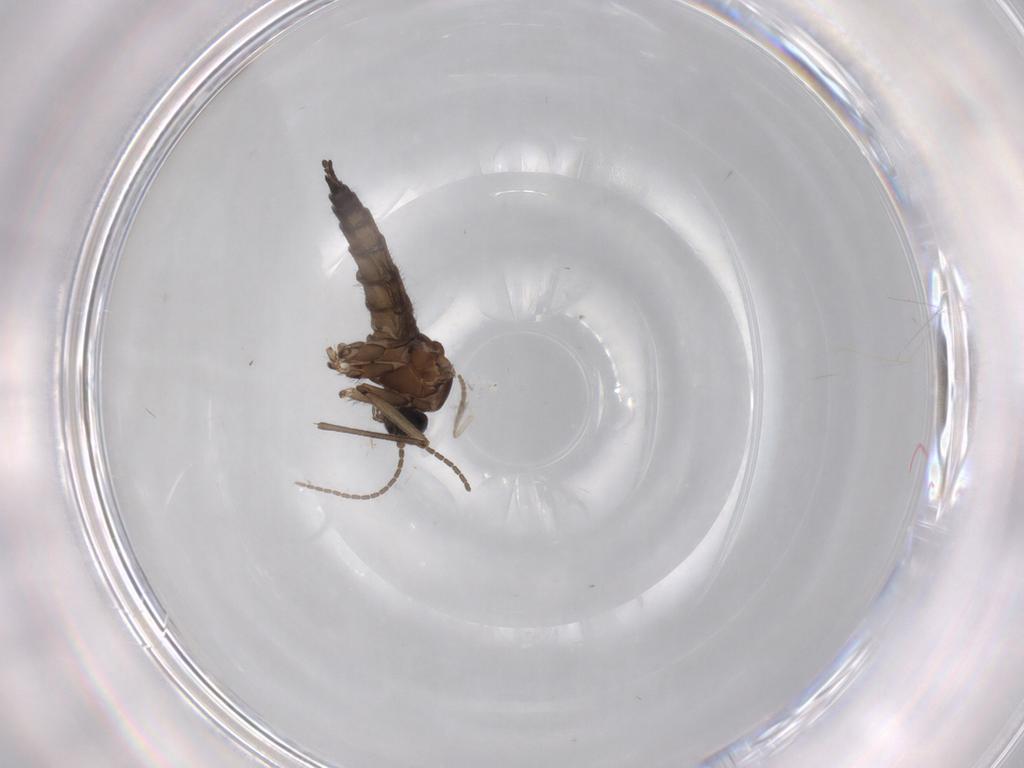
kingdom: Animalia
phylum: Arthropoda
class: Insecta
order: Diptera
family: Sciaridae
